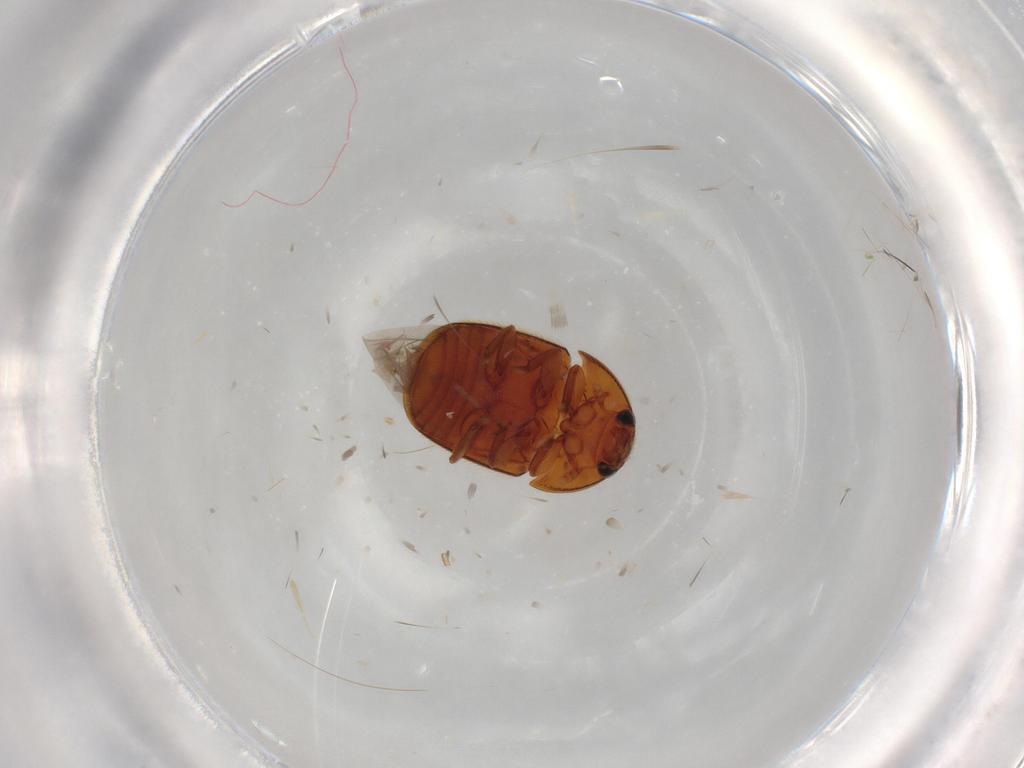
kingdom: Animalia
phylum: Arthropoda
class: Insecta
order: Coleoptera
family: Nitidulidae
